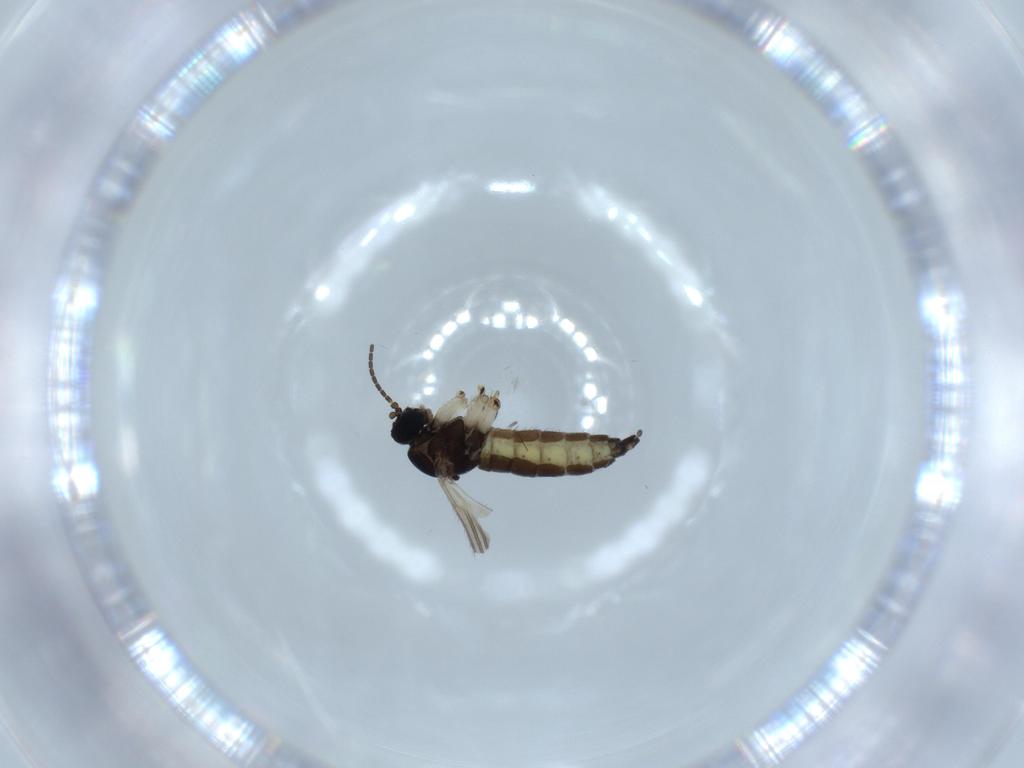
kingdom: Animalia
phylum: Arthropoda
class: Insecta
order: Diptera
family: Sciaridae
